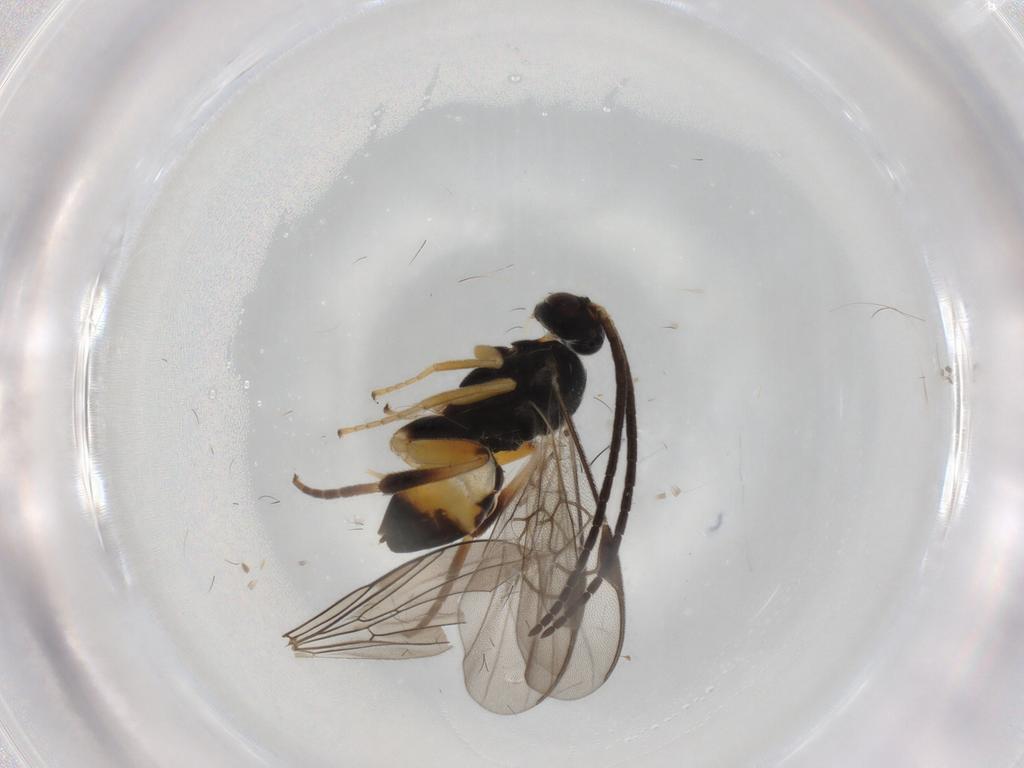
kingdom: Animalia
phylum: Arthropoda
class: Insecta
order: Hymenoptera
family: Braconidae
